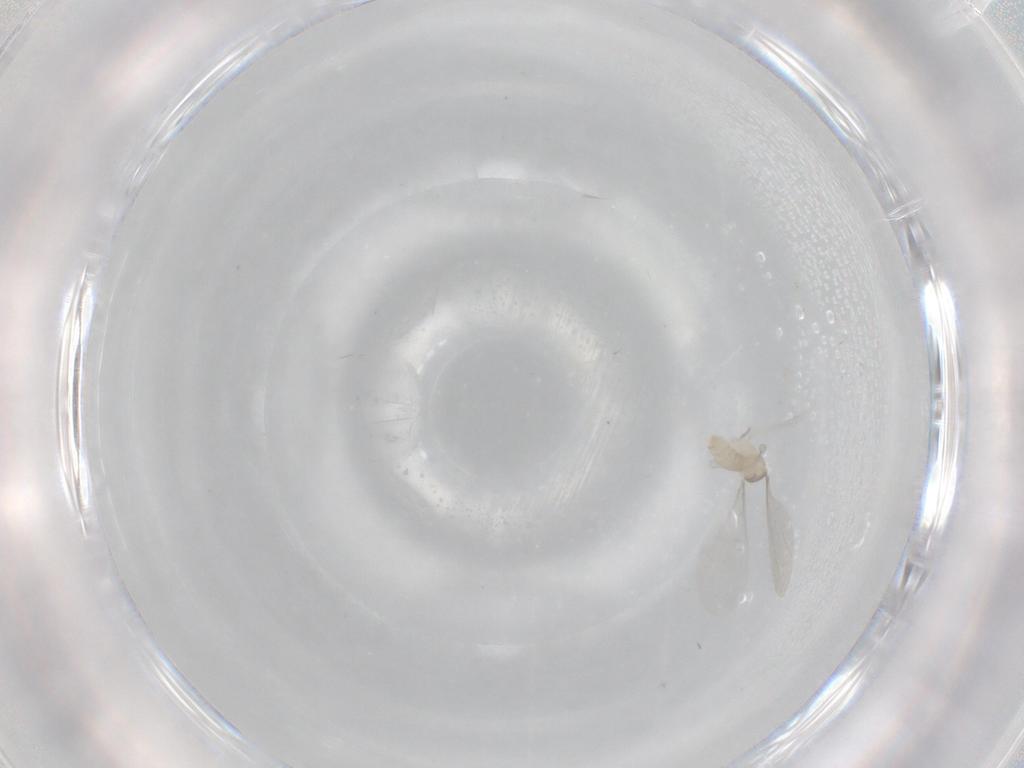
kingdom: Animalia
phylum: Arthropoda
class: Insecta
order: Diptera
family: Cecidomyiidae
